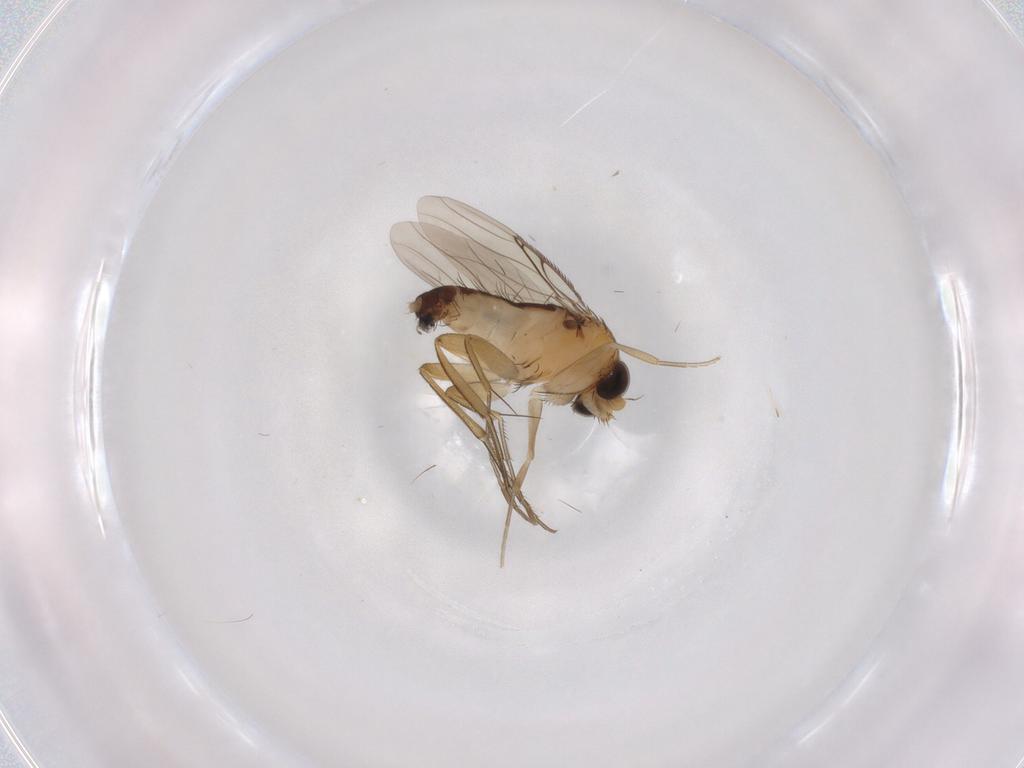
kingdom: Animalia
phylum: Arthropoda
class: Insecta
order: Diptera
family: Phoridae
